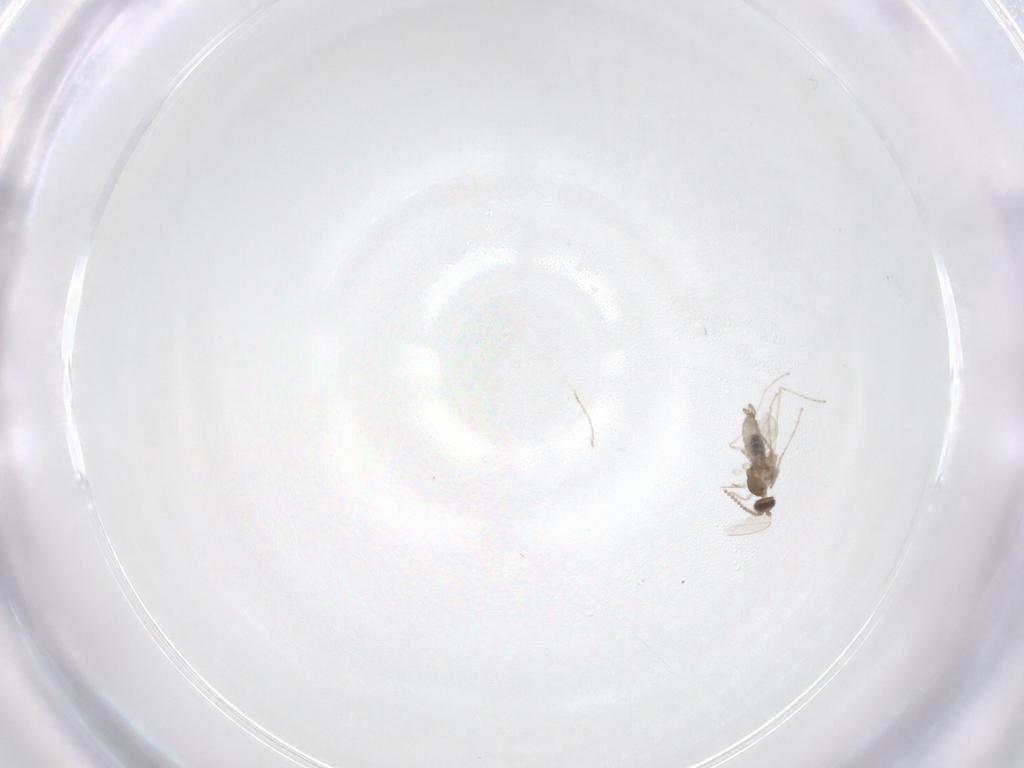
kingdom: Animalia
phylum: Arthropoda
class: Insecta
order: Diptera
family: Cecidomyiidae
